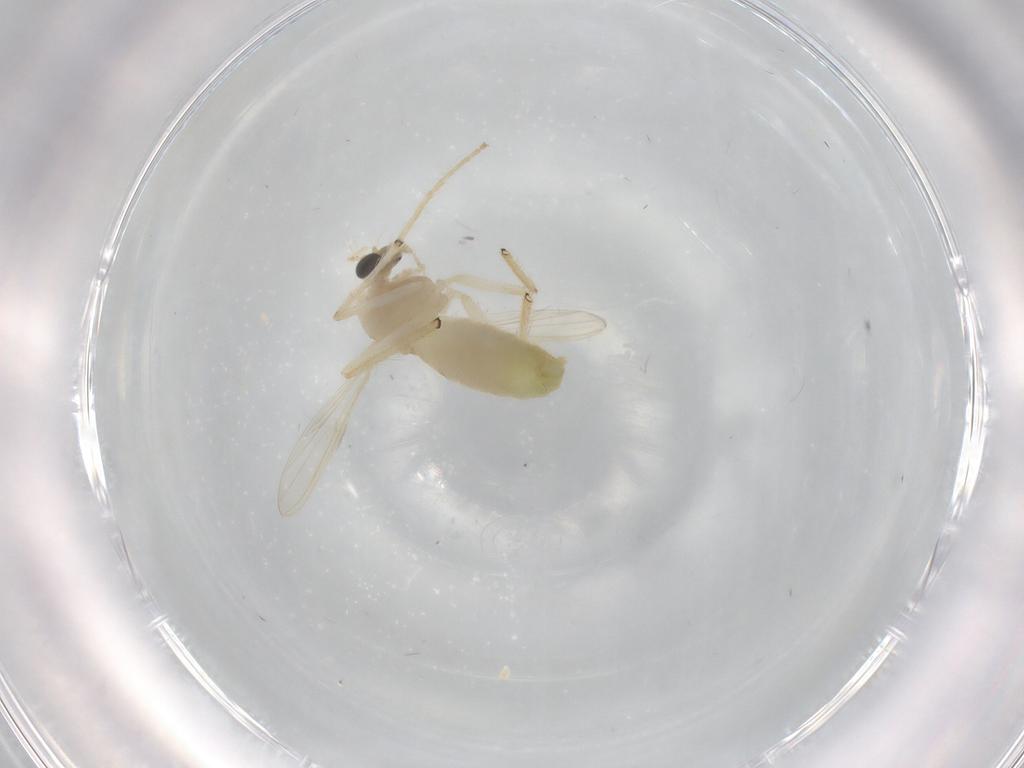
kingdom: Animalia
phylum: Arthropoda
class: Insecta
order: Diptera
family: Chironomidae
